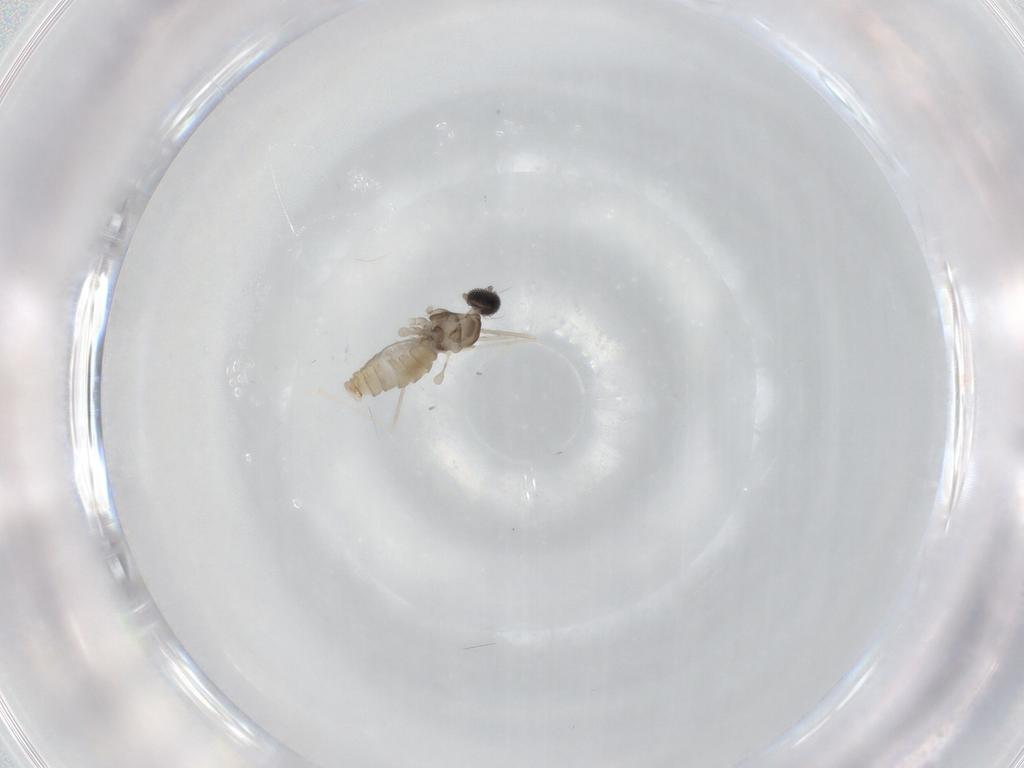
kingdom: Animalia
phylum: Arthropoda
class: Insecta
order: Diptera
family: Cecidomyiidae
